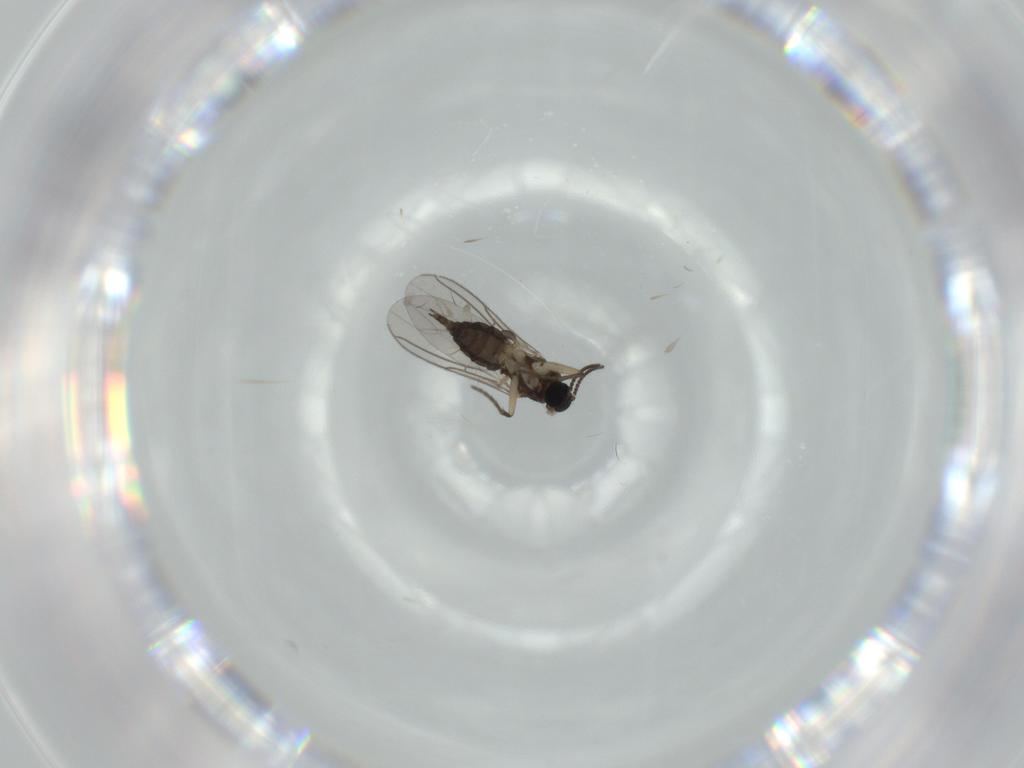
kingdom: Animalia
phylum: Arthropoda
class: Insecta
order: Diptera
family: Sciaridae
